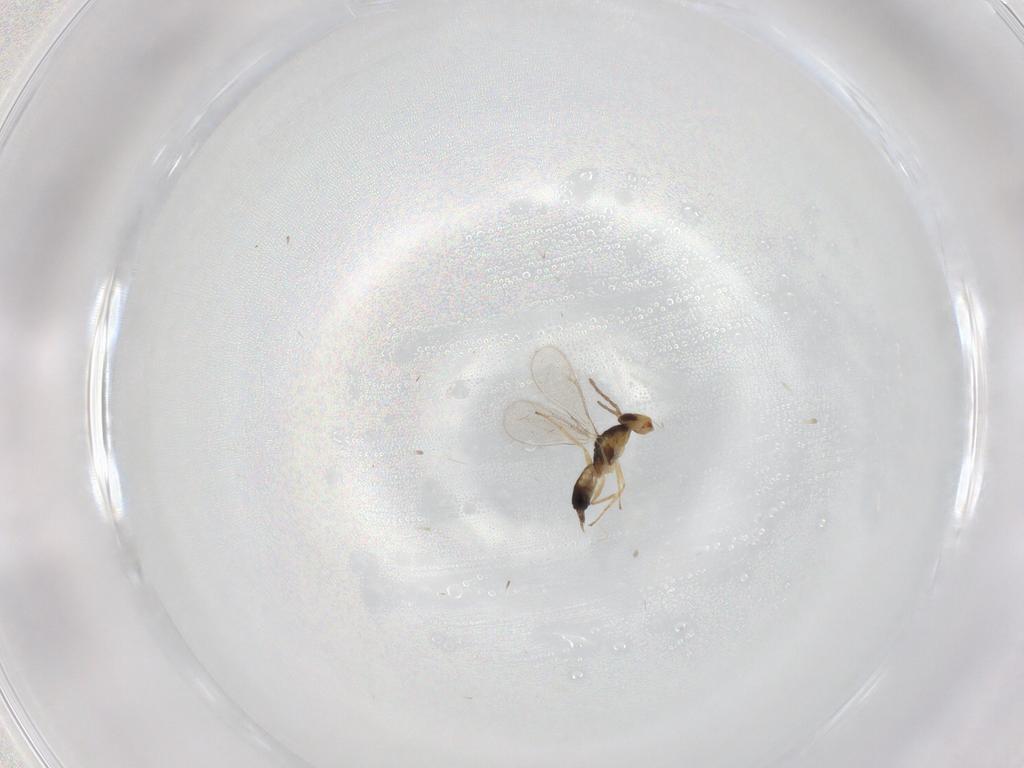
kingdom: Animalia
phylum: Arthropoda
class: Insecta
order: Hymenoptera
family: Eulophidae
